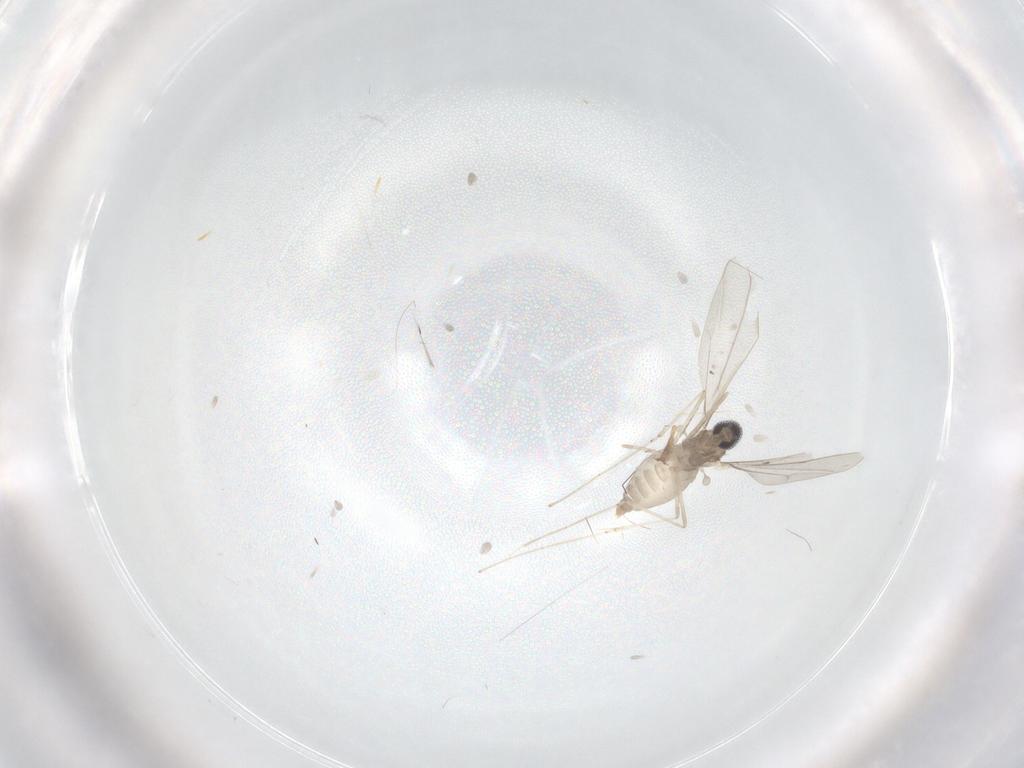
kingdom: Animalia
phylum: Arthropoda
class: Insecta
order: Diptera
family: Agromyzidae
